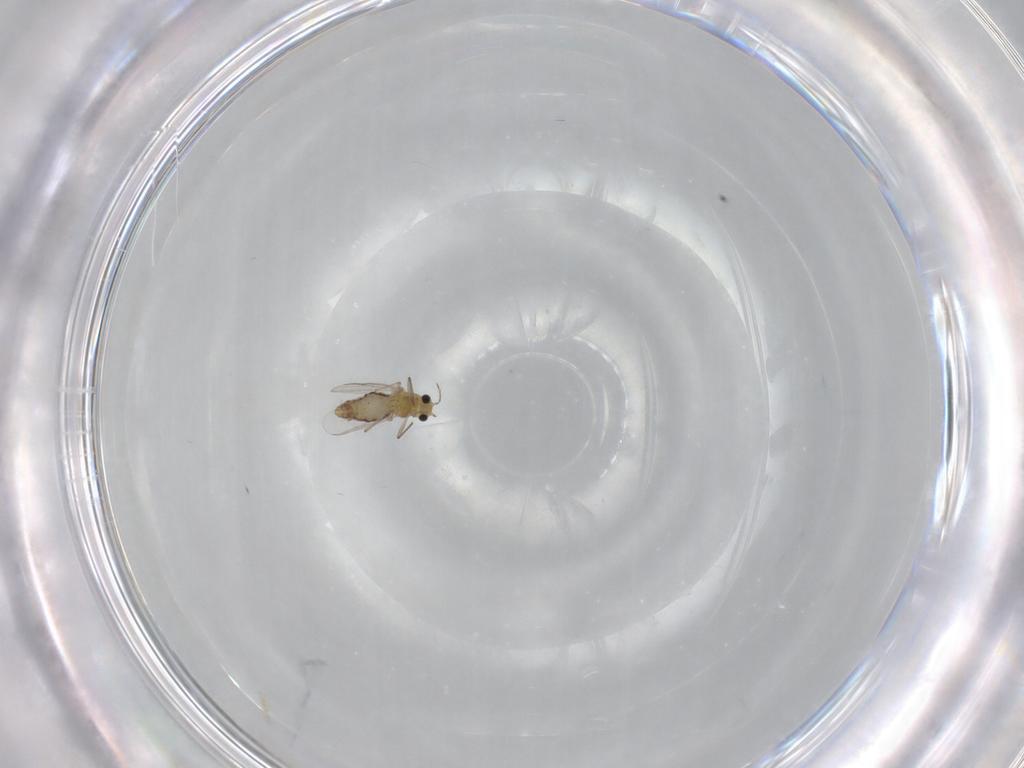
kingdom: Animalia
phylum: Arthropoda
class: Insecta
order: Diptera
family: Chironomidae
